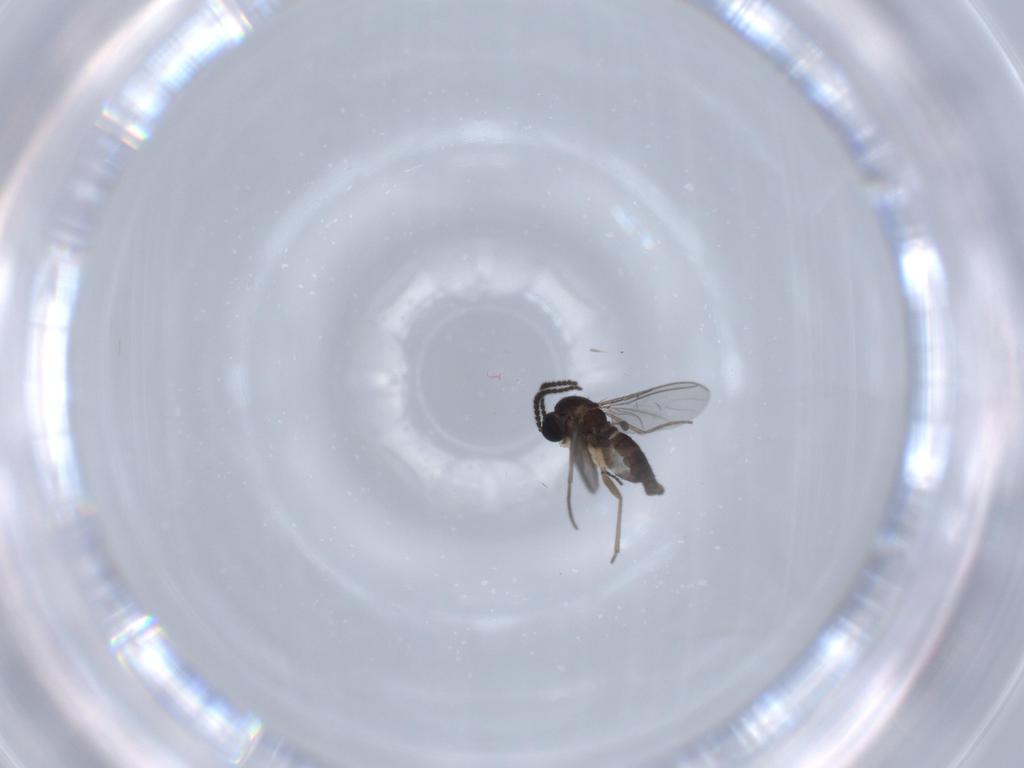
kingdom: Animalia
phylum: Arthropoda
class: Insecta
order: Diptera
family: Sciaridae
